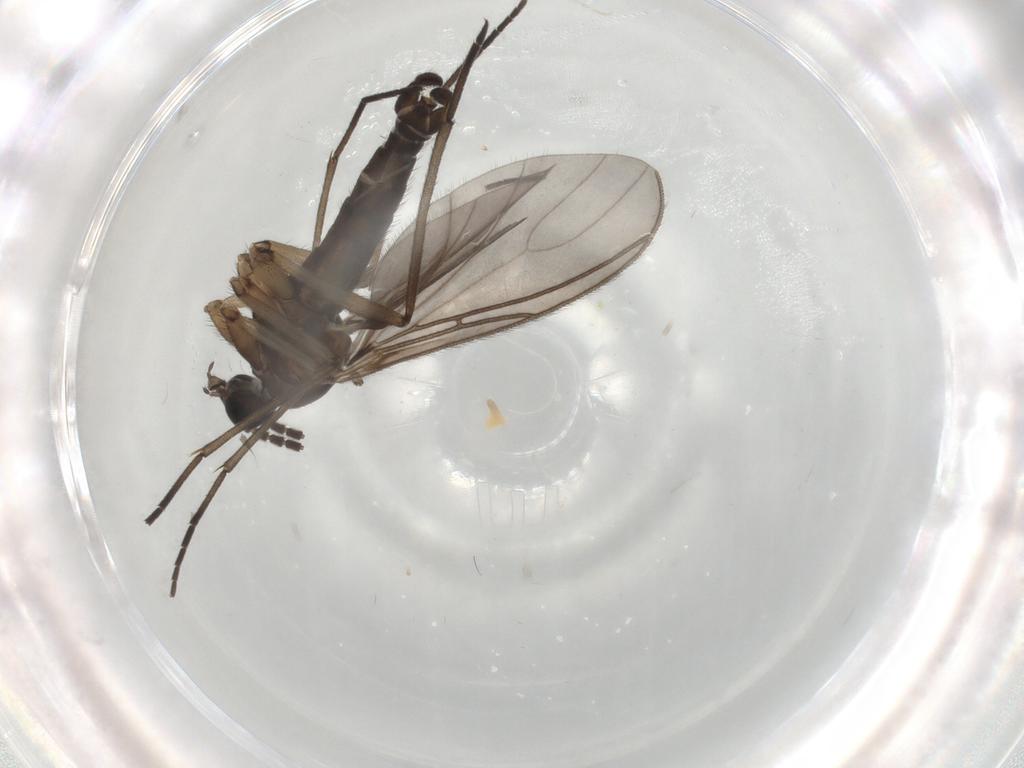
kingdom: Animalia
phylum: Arthropoda
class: Insecta
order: Diptera
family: Sciaridae
